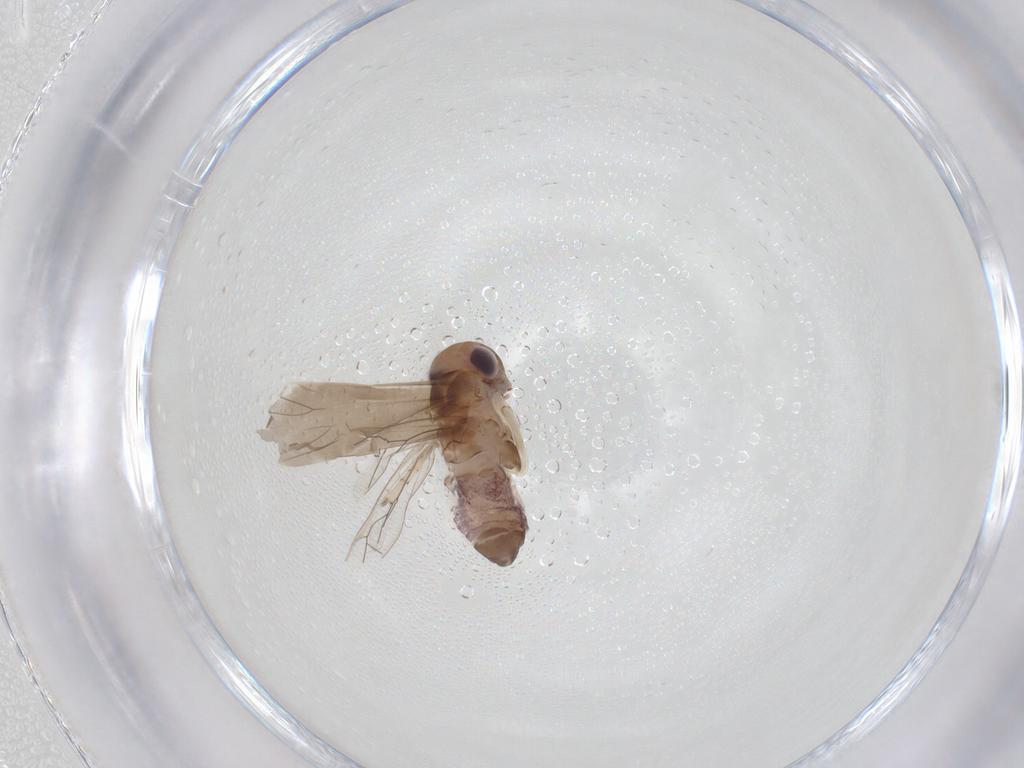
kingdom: Animalia
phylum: Arthropoda
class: Insecta
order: Psocodea
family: Amphientomidae
